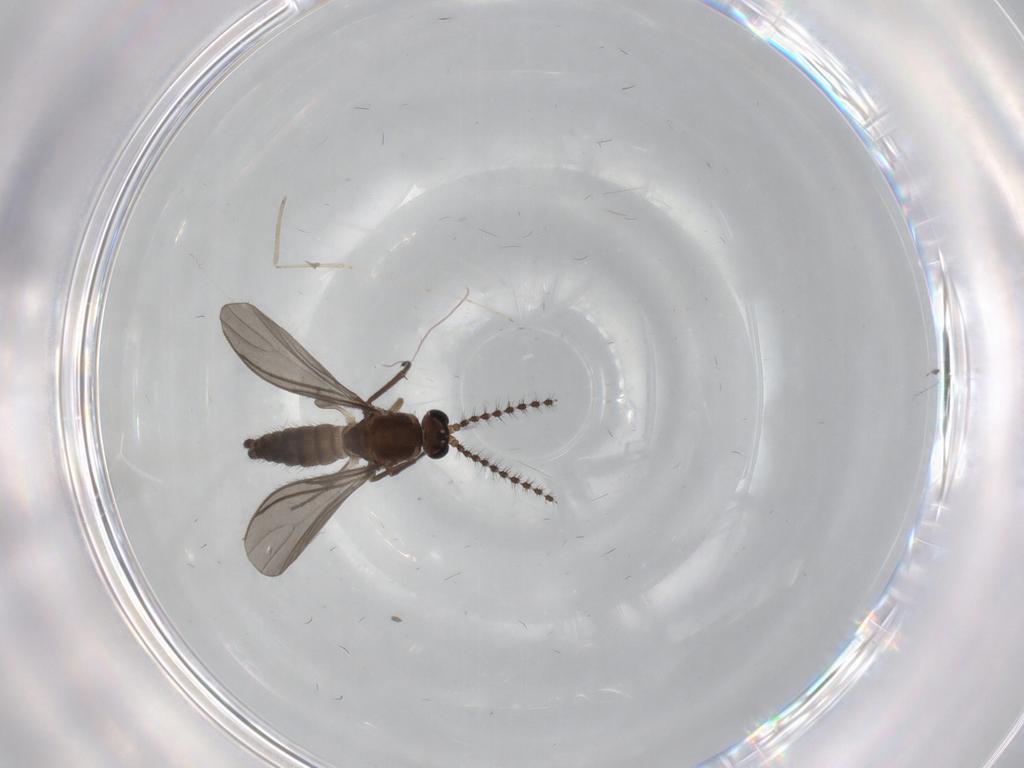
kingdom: Animalia
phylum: Arthropoda
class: Insecta
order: Diptera
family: Sciaridae
